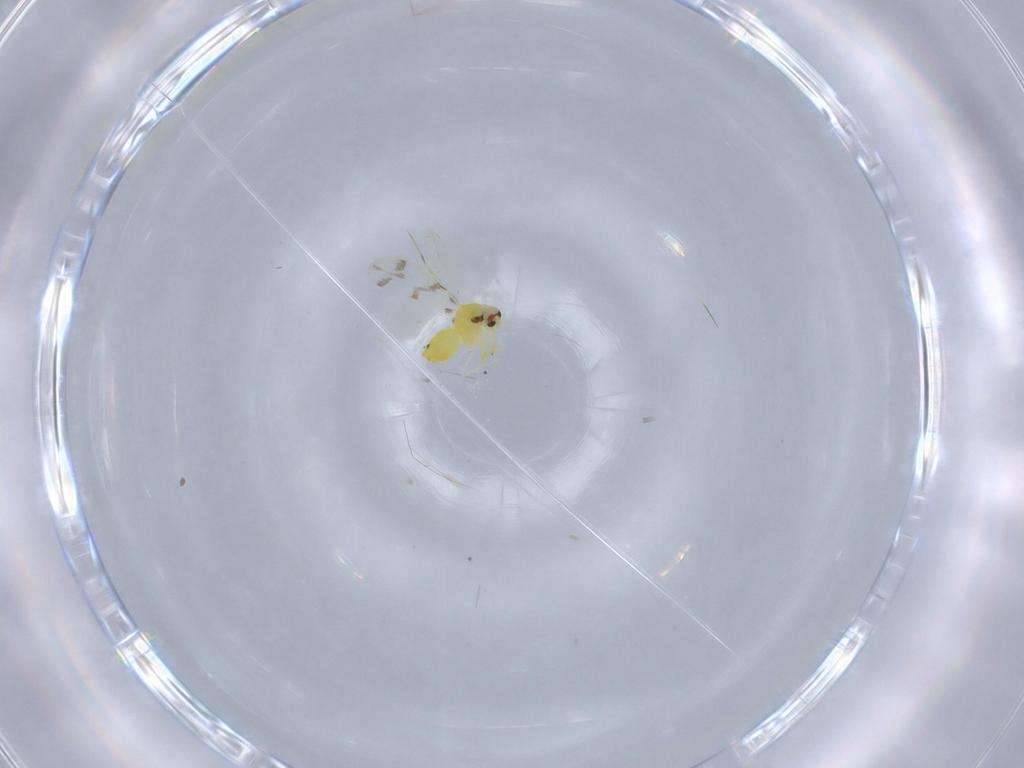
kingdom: Animalia
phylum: Arthropoda
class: Insecta
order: Hemiptera
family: Aleyrodidae
